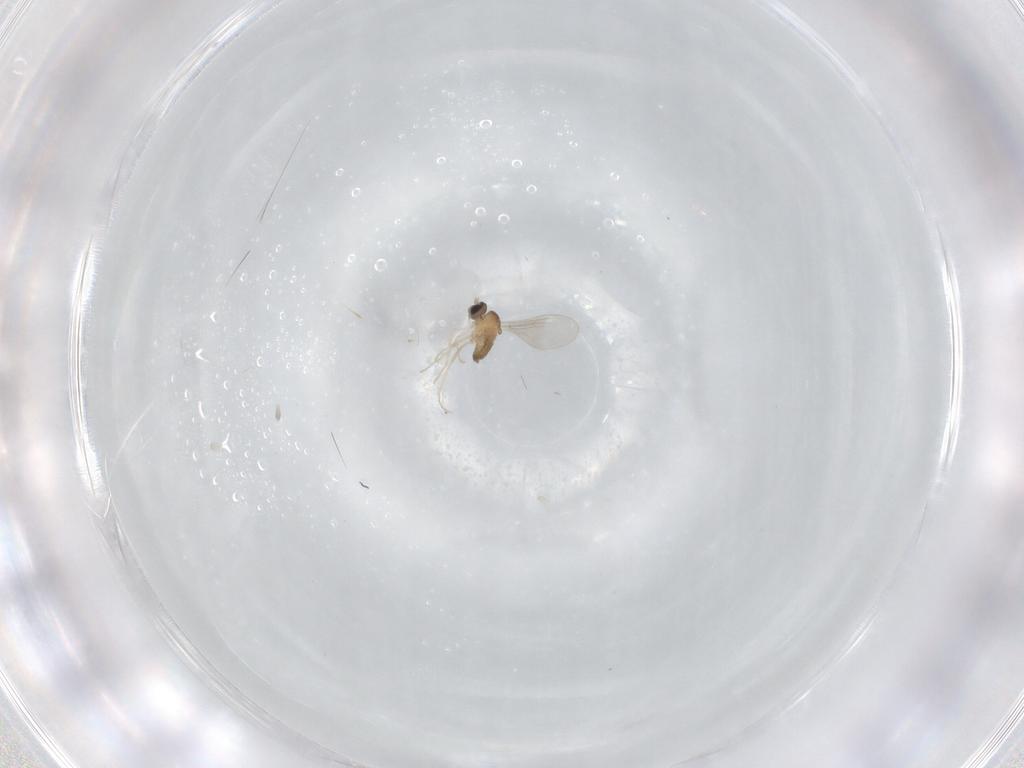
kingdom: Animalia
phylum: Arthropoda
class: Insecta
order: Diptera
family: Cecidomyiidae
